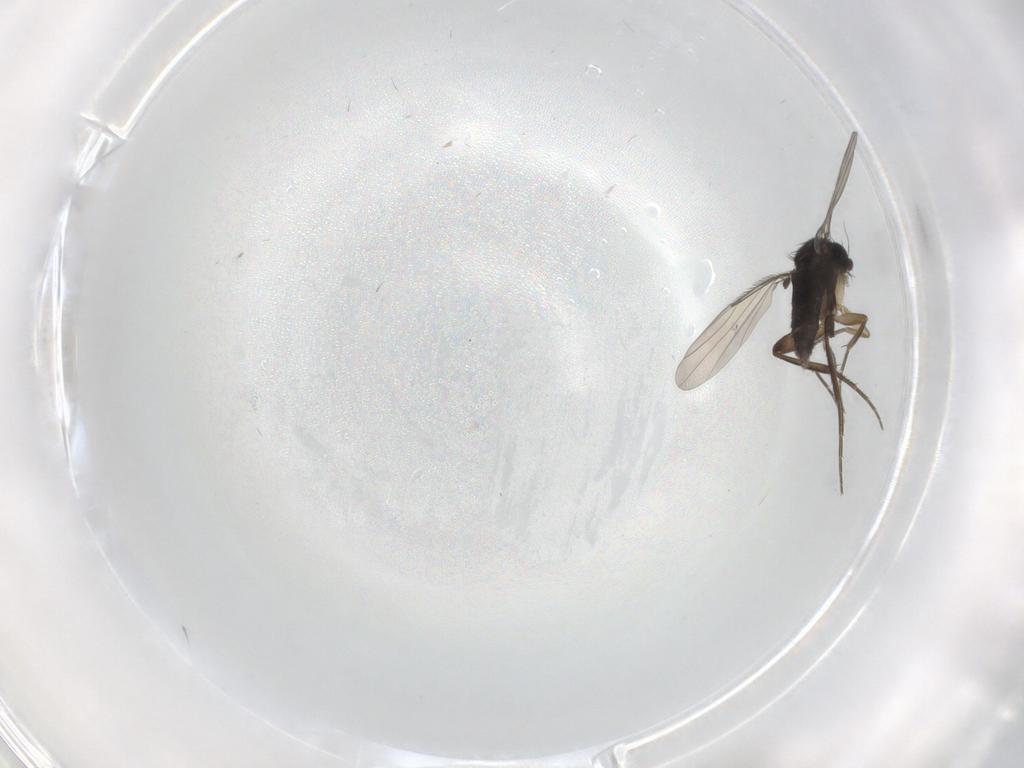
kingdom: Animalia
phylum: Arthropoda
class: Insecta
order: Diptera
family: Phoridae
